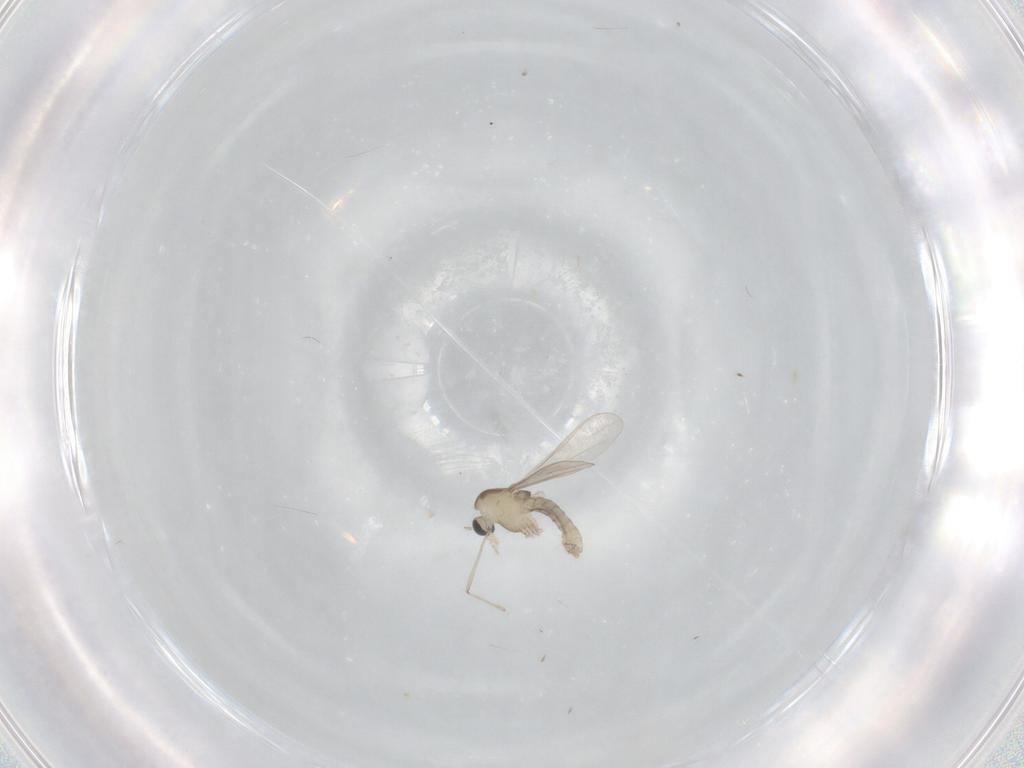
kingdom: Animalia
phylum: Arthropoda
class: Insecta
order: Diptera
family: Chironomidae
